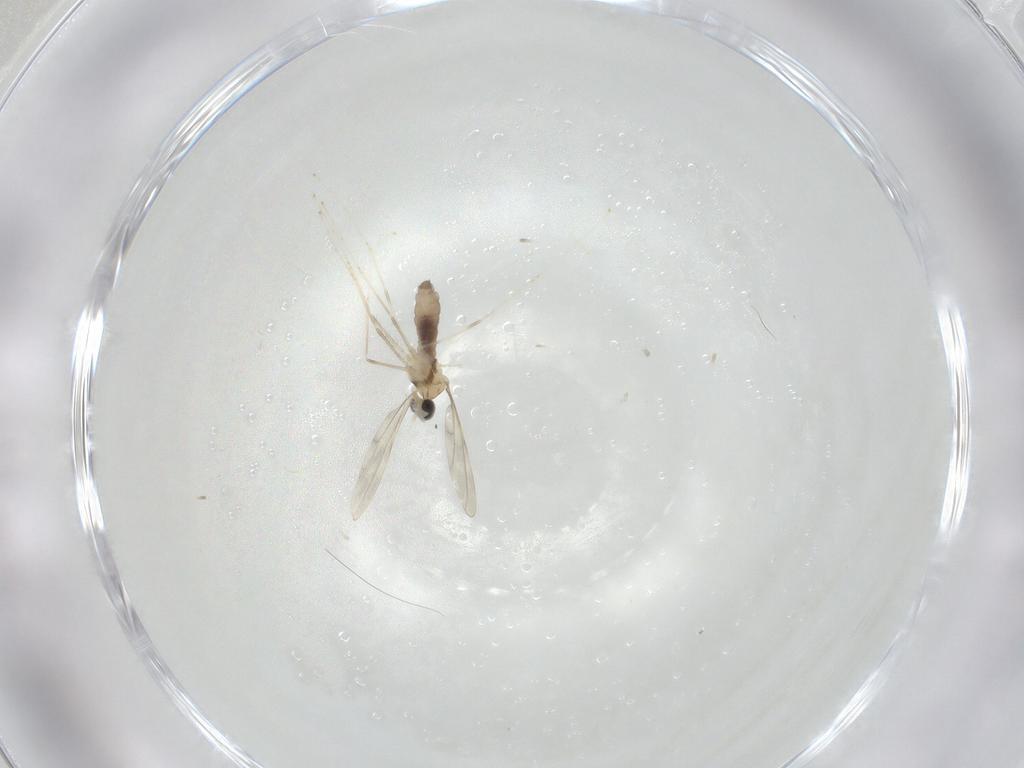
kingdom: Animalia
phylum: Arthropoda
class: Insecta
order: Diptera
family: Cecidomyiidae
